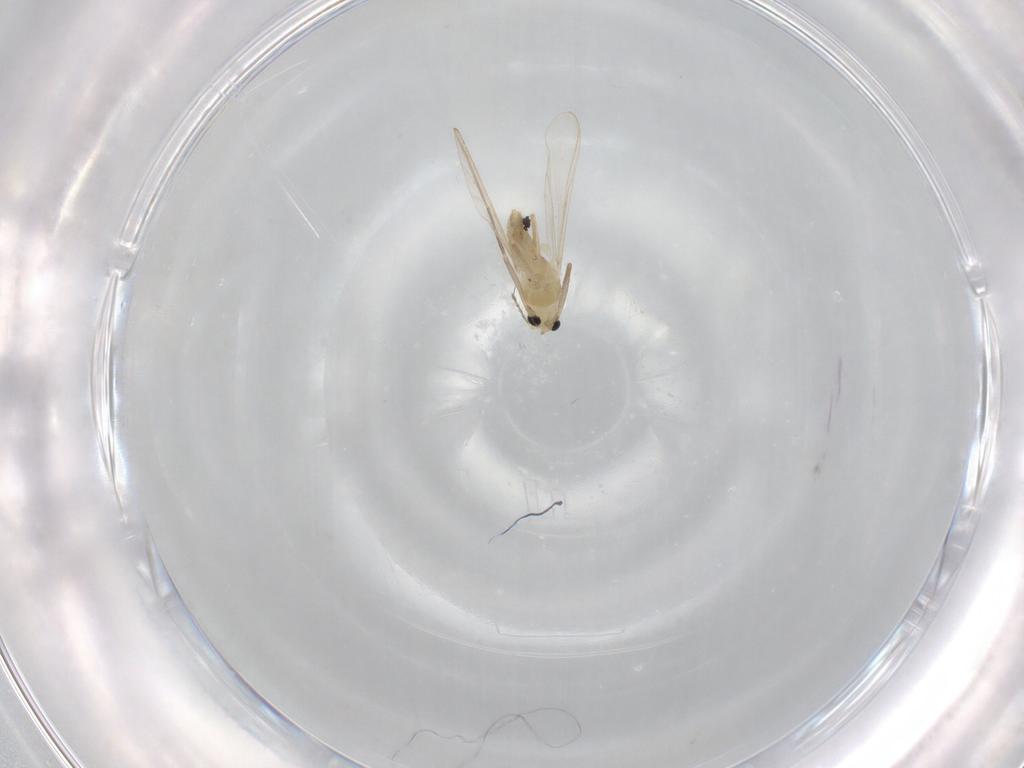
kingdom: Animalia
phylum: Arthropoda
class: Insecta
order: Diptera
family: Chironomidae
